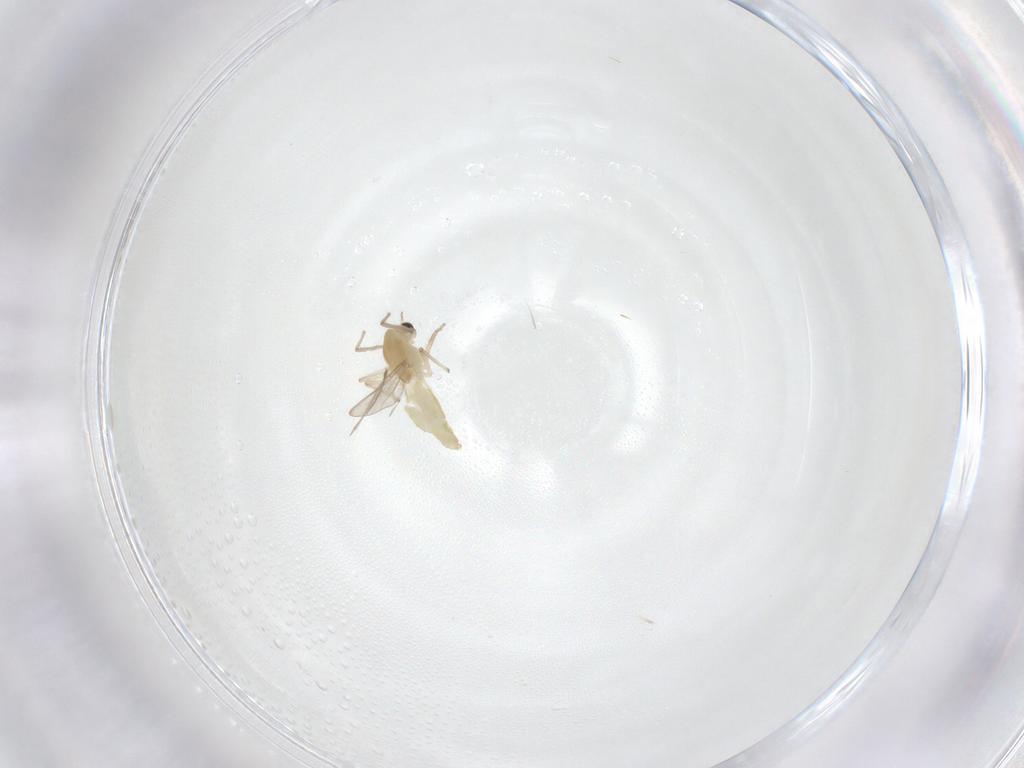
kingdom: Animalia
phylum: Arthropoda
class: Insecta
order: Diptera
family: Chironomidae
